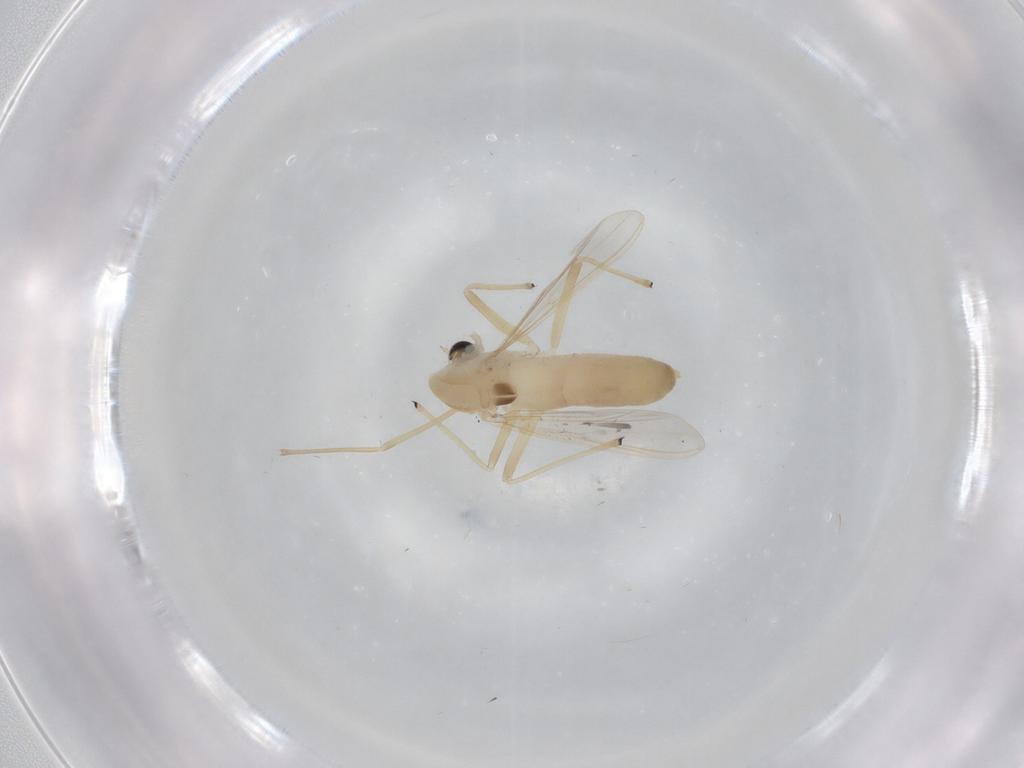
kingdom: Animalia
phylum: Arthropoda
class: Insecta
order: Diptera
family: Chironomidae
